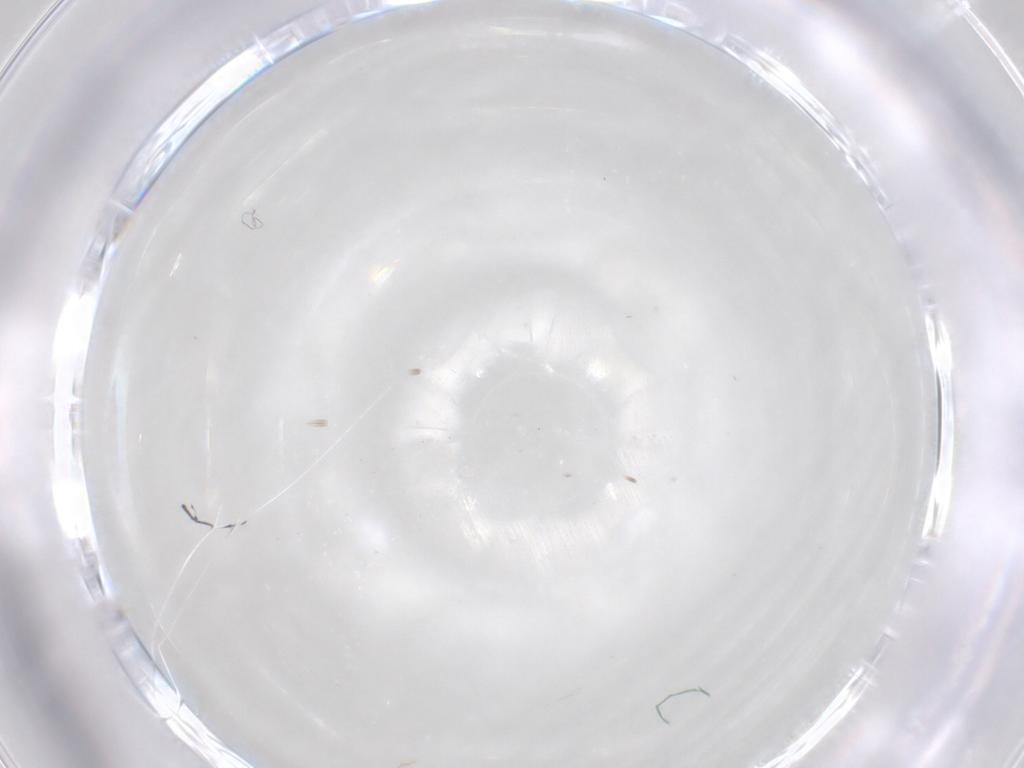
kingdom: Animalia
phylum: Arthropoda
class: Insecta
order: Diptera
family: Phoridae
